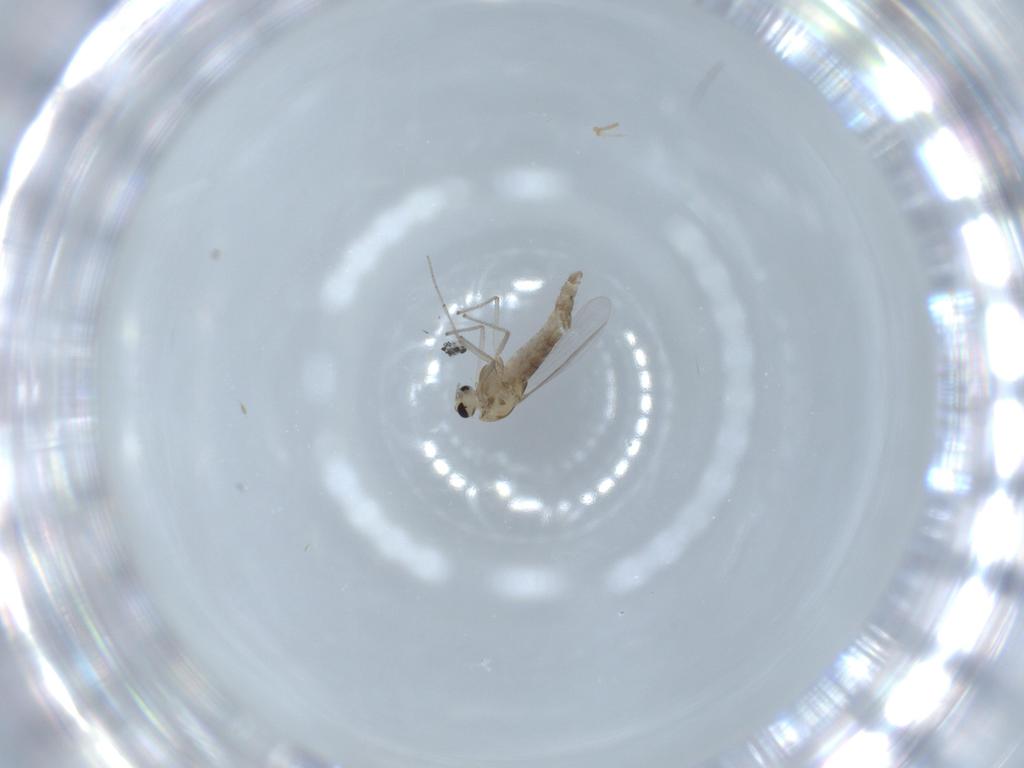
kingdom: Animalia
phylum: Arthropoda
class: Insecta
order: Diptera
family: Chironomidae
